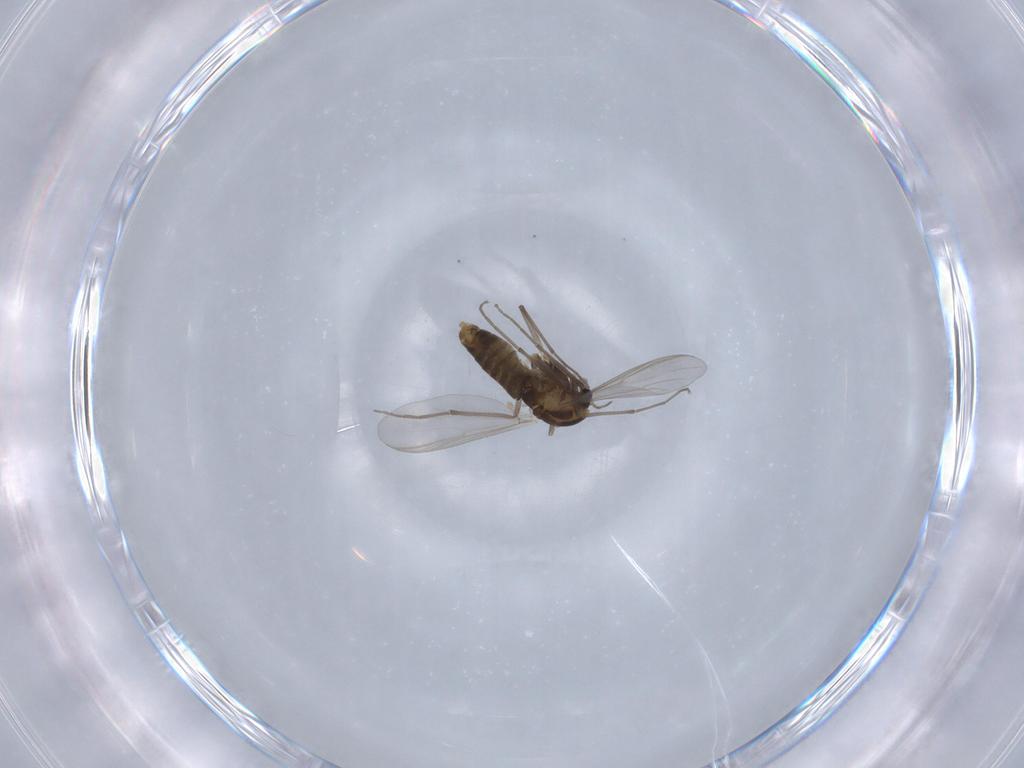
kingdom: Animalia
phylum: Arthropoda
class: Insecta
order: Diptera
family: Chironomidae
